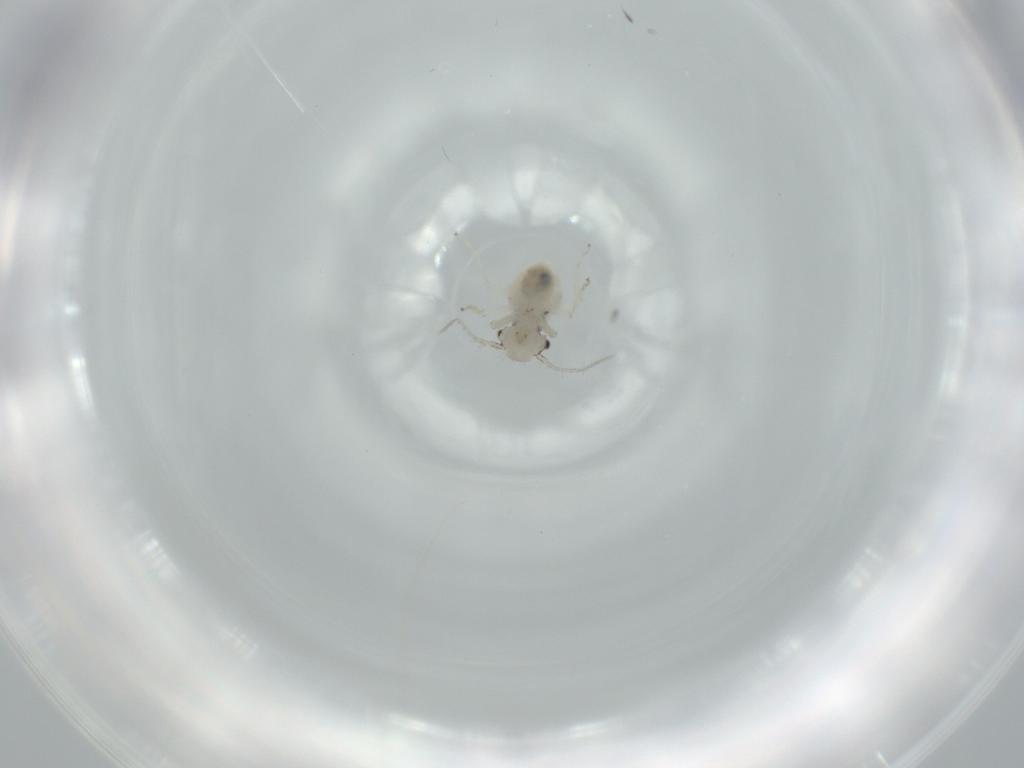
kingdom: Animalia
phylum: Arthropoda
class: Insecta
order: Psocodea
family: Pseudocaeciliidae
